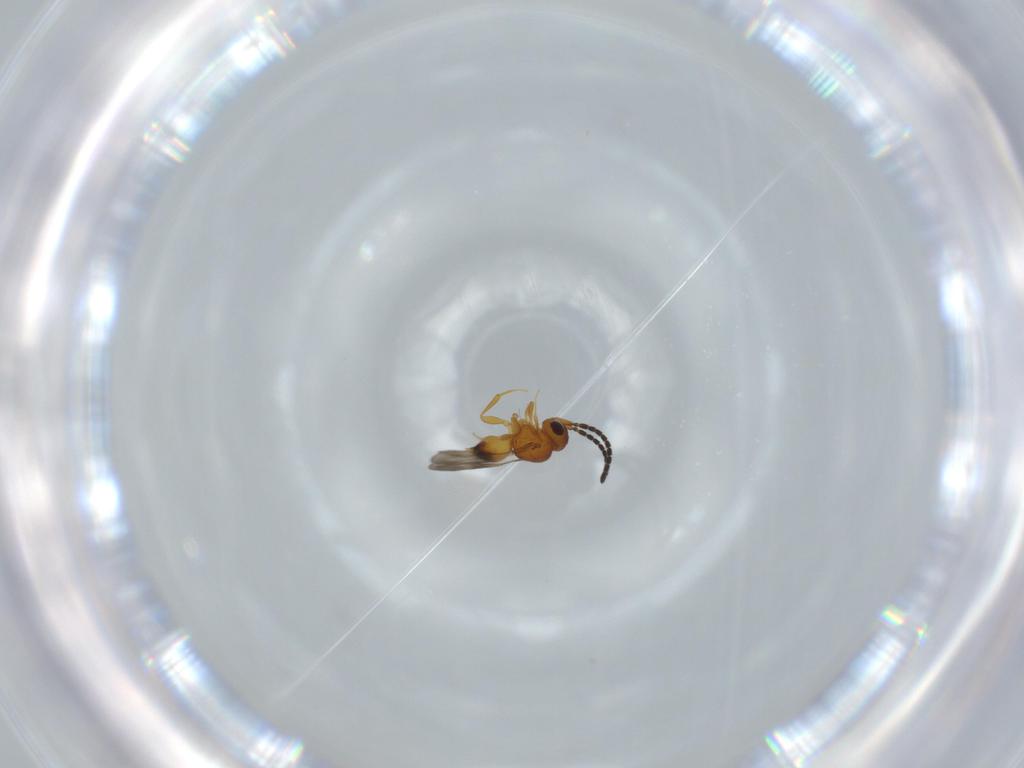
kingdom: Animalia
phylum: Arthropoda
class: Insecta
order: Hymenoptera
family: Ceraphronidae
